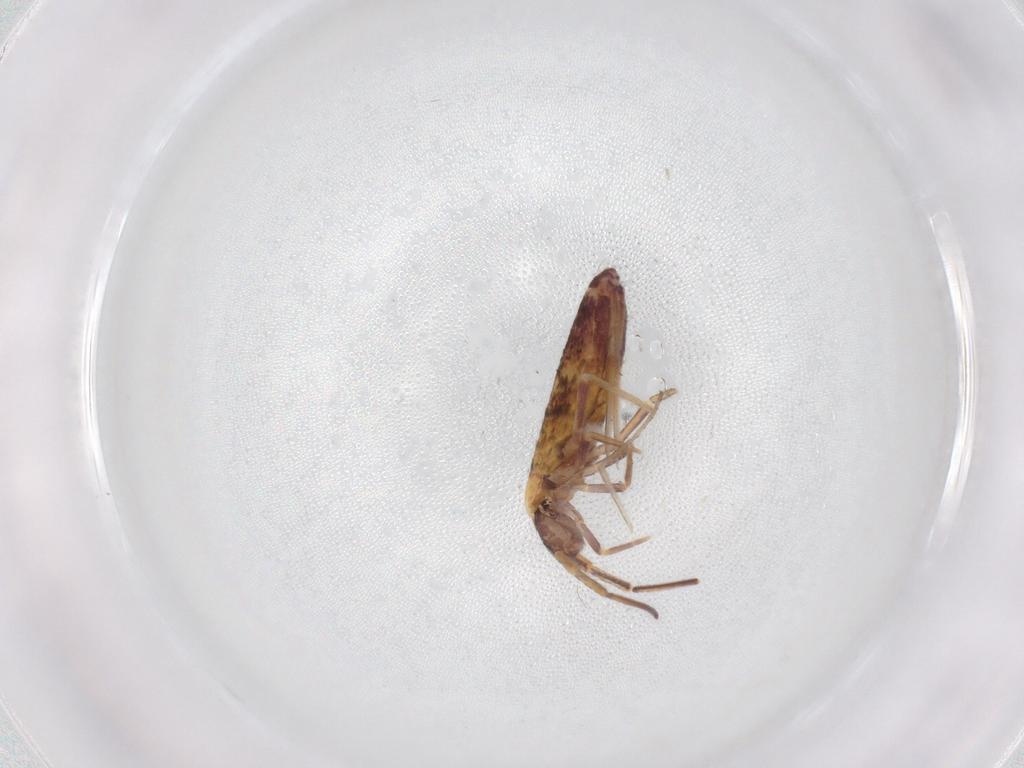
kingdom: Animalia
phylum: Arthropoda
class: Collembola
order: Entomobryomorpha
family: Entomobryidae
